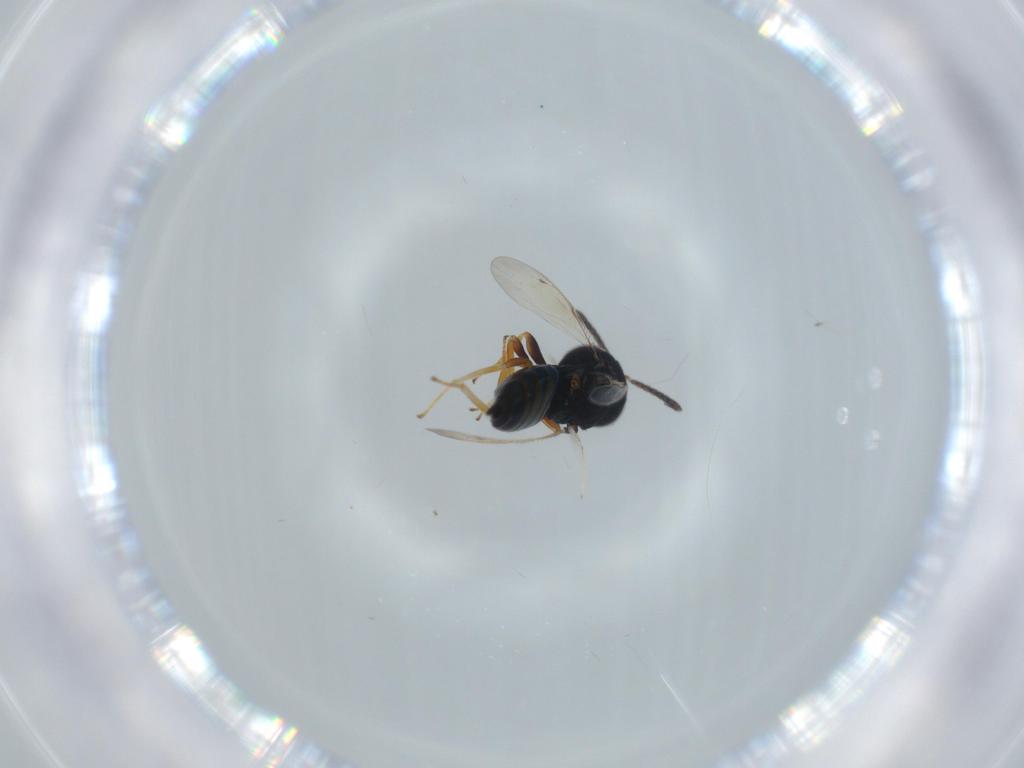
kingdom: Animalia
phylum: Arthropoda
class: Insecta
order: Hymenoptera
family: Pteromalidae
